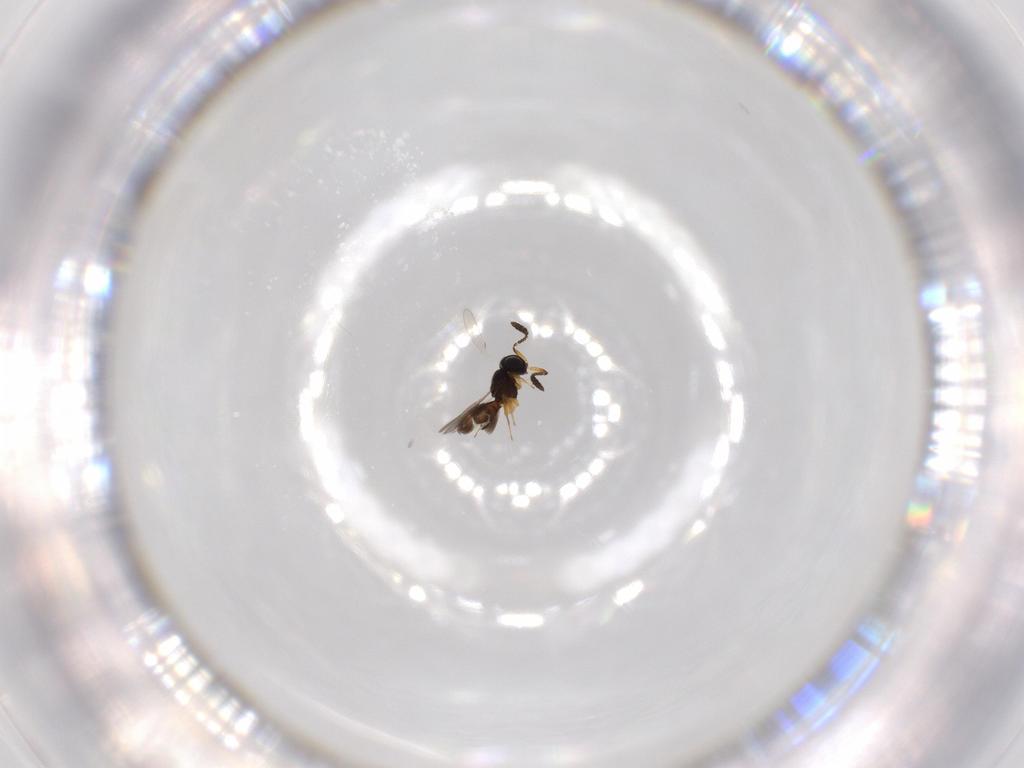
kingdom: Animalia
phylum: Arthropoda
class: Insecta
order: Hymenoptera
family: Scelionidae
